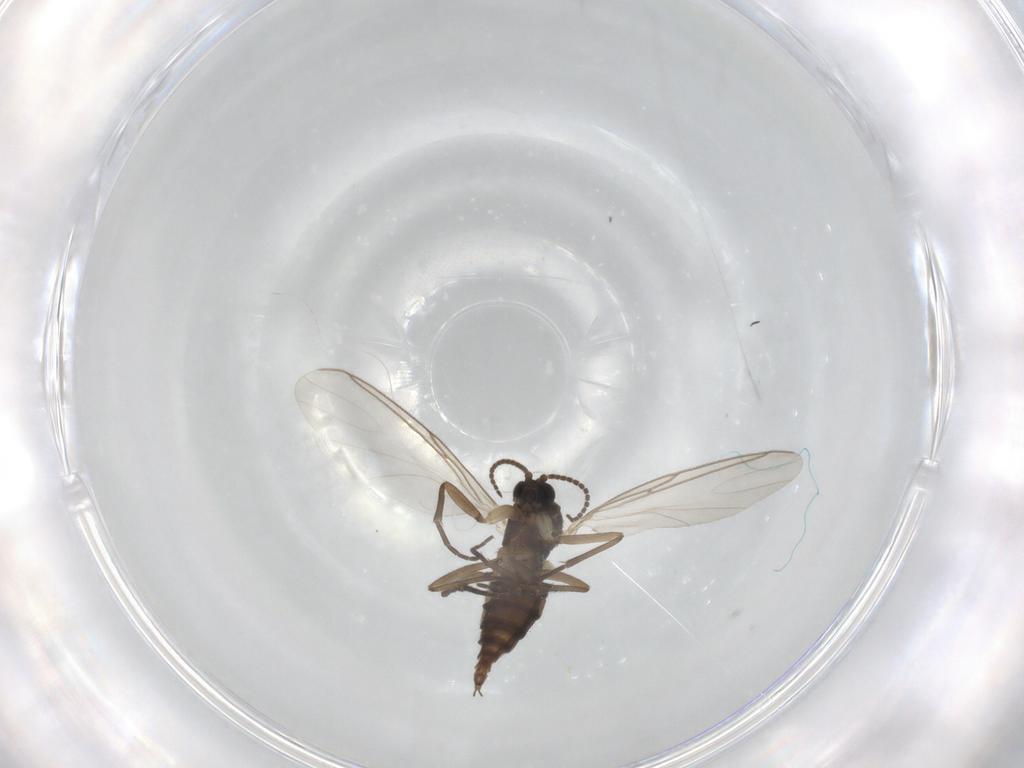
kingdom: Animalia
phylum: Arthropoda
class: Insecta
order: Diptera
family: Sciaridae
